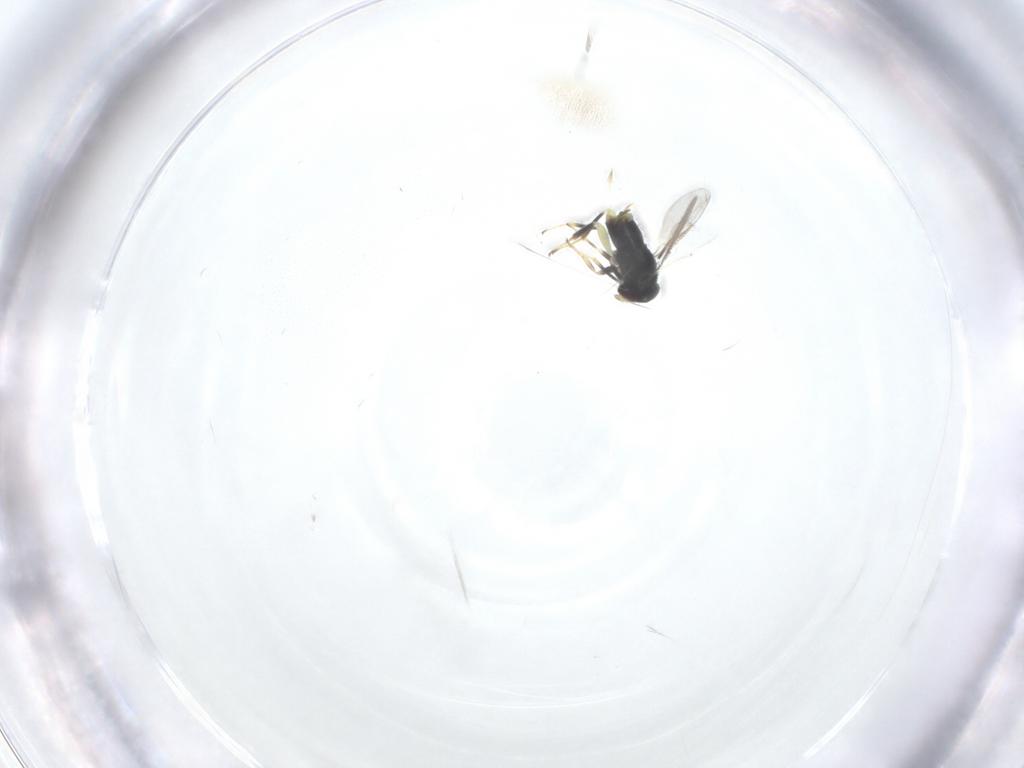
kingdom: Animalia
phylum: Arthropoda
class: Insecta
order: Hymenoptera
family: Aphelinidae
